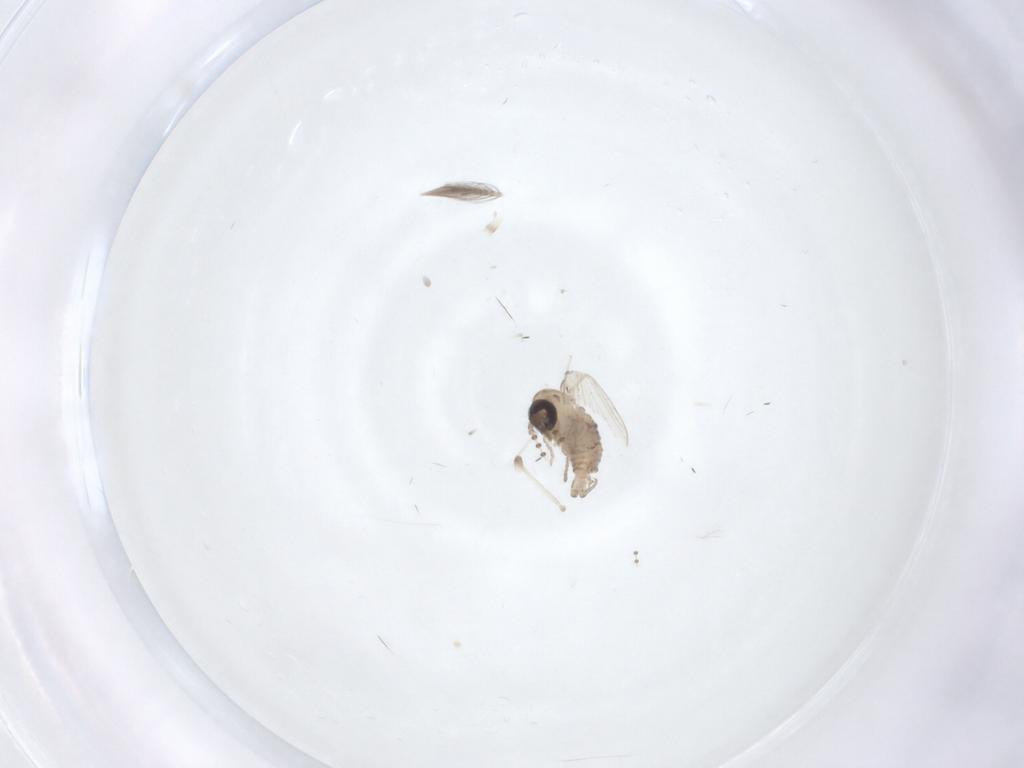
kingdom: Animalia
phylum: Arthropoda
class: Insecta
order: Diptera
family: Psychodidae
